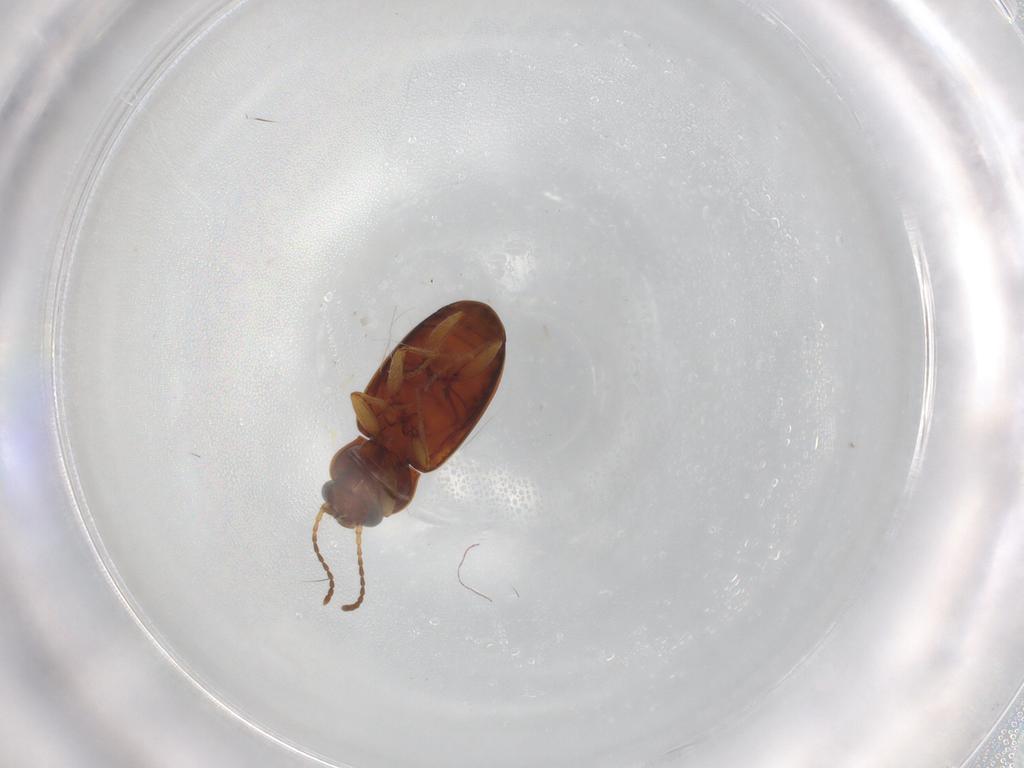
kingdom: Animalia
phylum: Arthropoda
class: Insecta
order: Coleoptera
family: Carabidae
